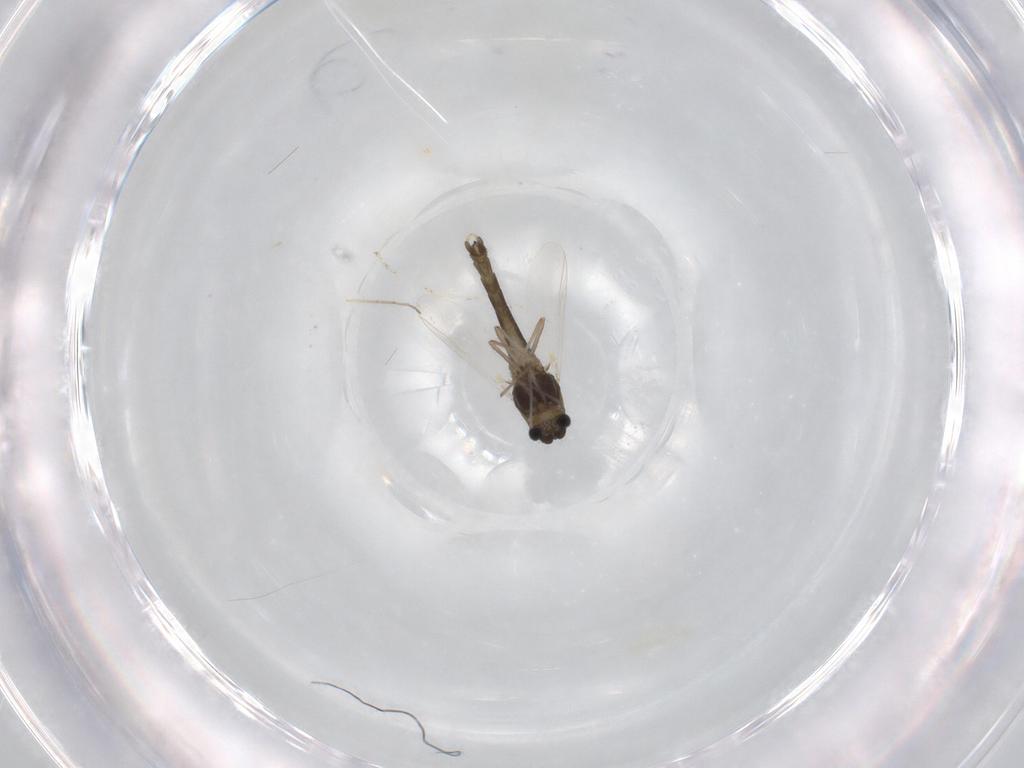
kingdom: Animalia
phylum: Arthropoda
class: Insecta
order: Diptera
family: Chironomidae
